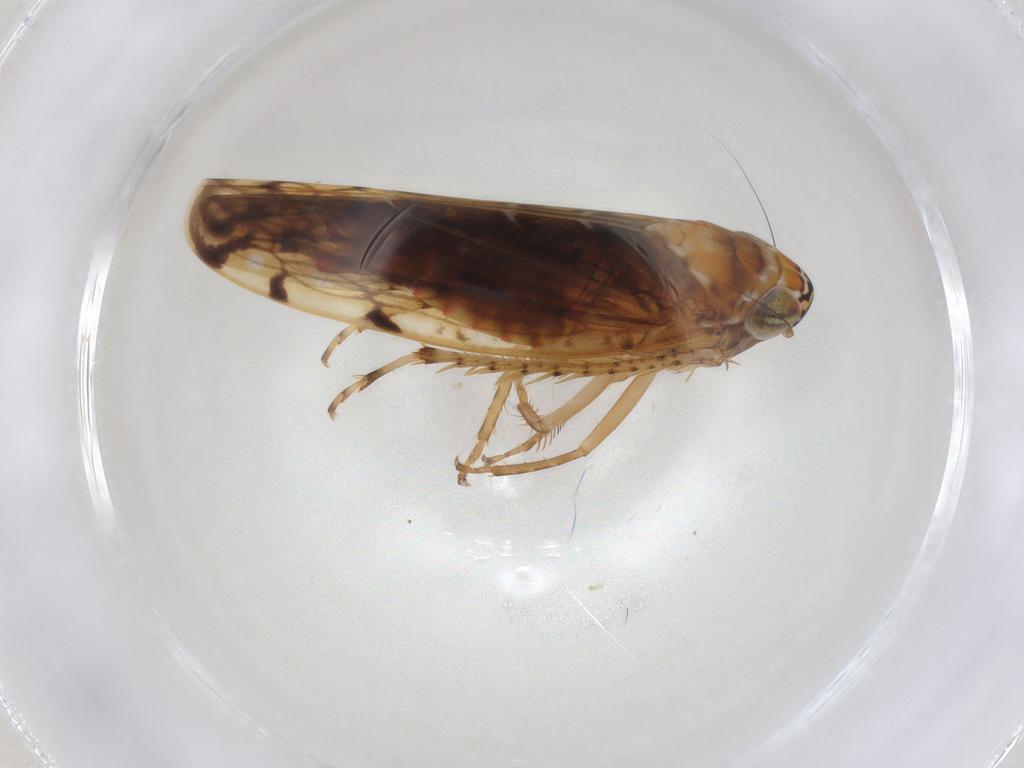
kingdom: Animalia
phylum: Arthropoda
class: Insecta
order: Hemiptera
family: Cicadellidae
